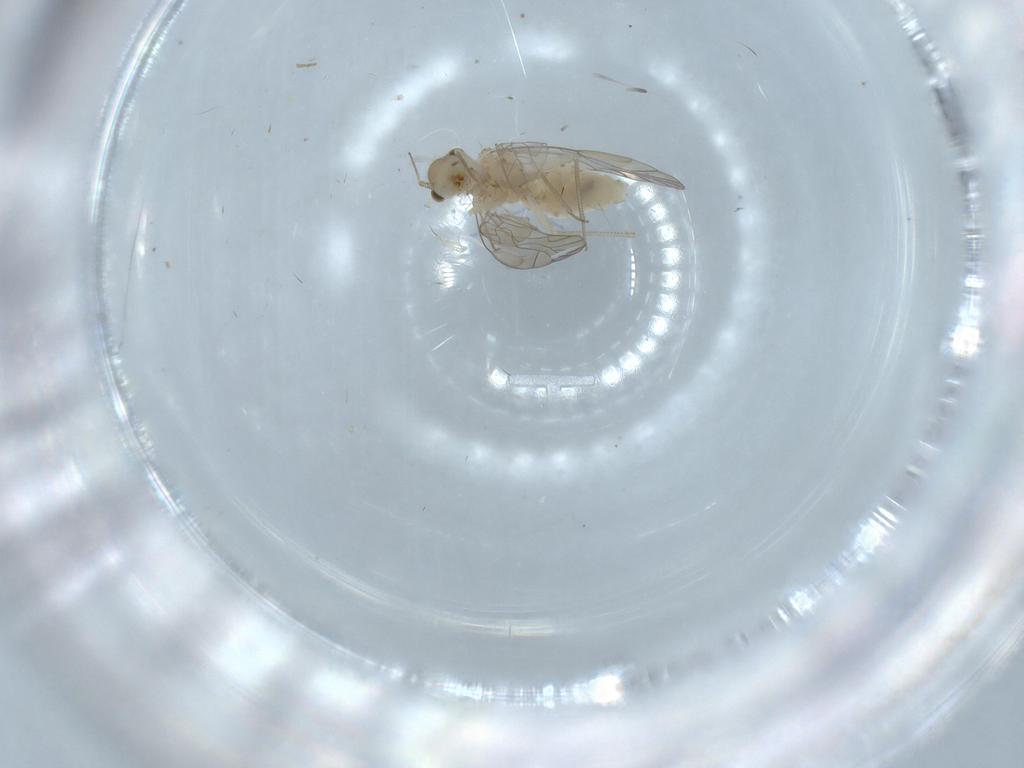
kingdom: Animalia
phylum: Arthropoda
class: Insecta
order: Psocodea
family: Lachesillidae
